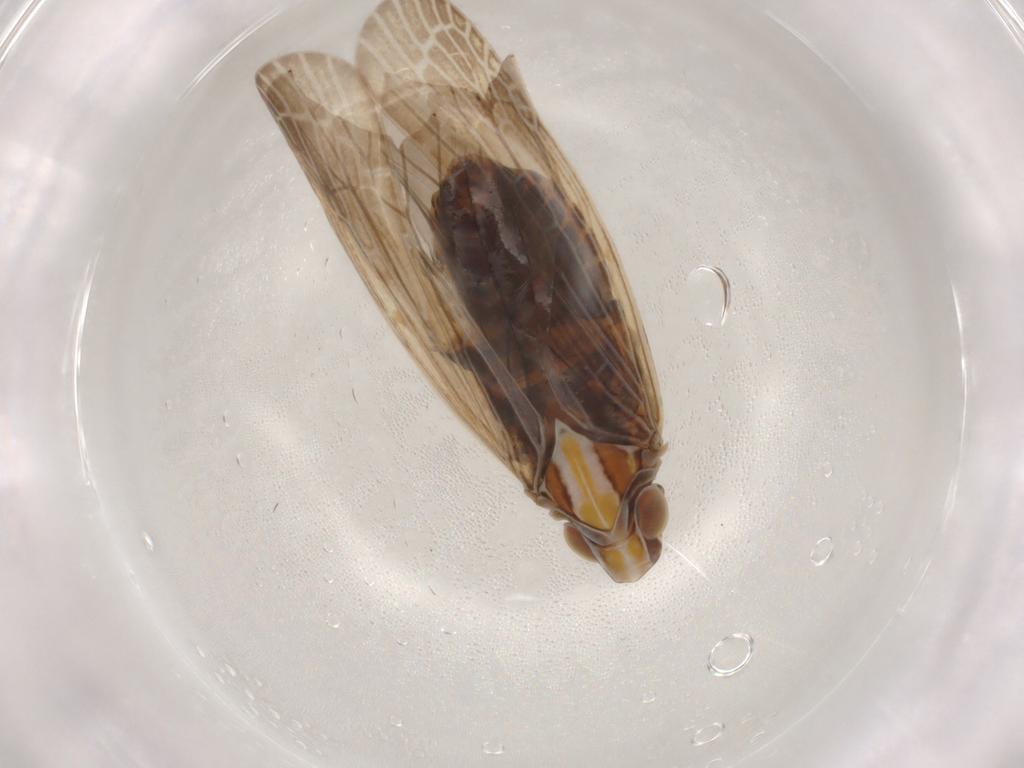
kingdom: Animalia
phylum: Arthropoda
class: Insecta
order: Hemiptera
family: Achilidae
